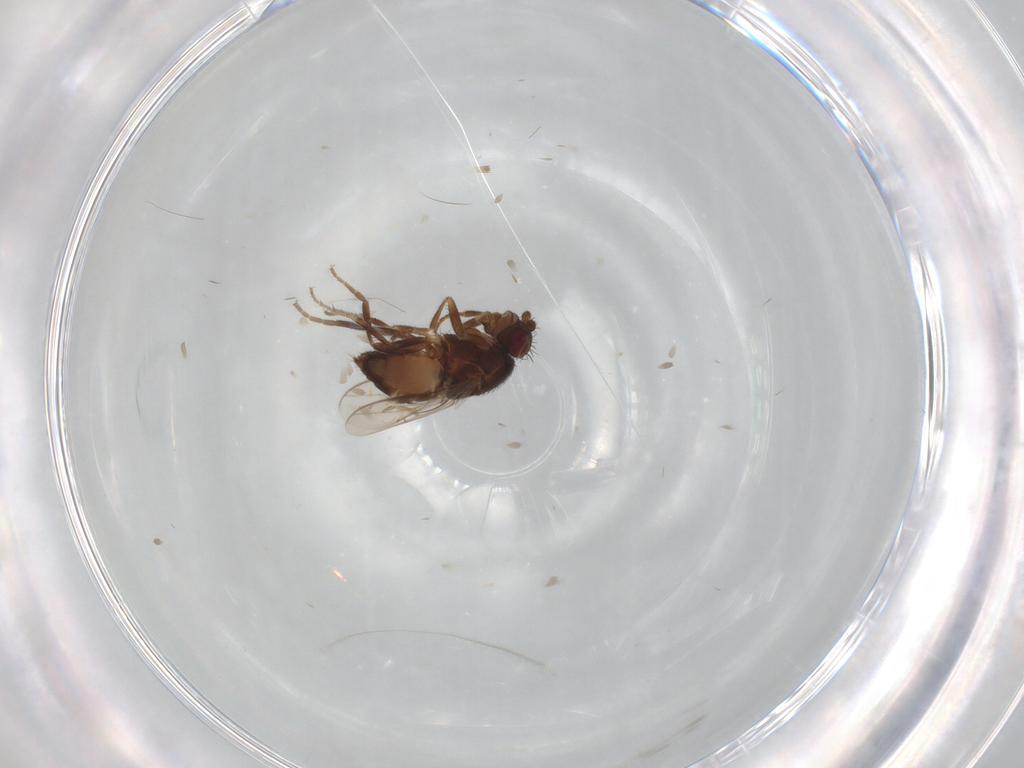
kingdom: Animalia
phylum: Arthropoda
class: Insecta
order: Diptera
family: Sphaeroceridae
